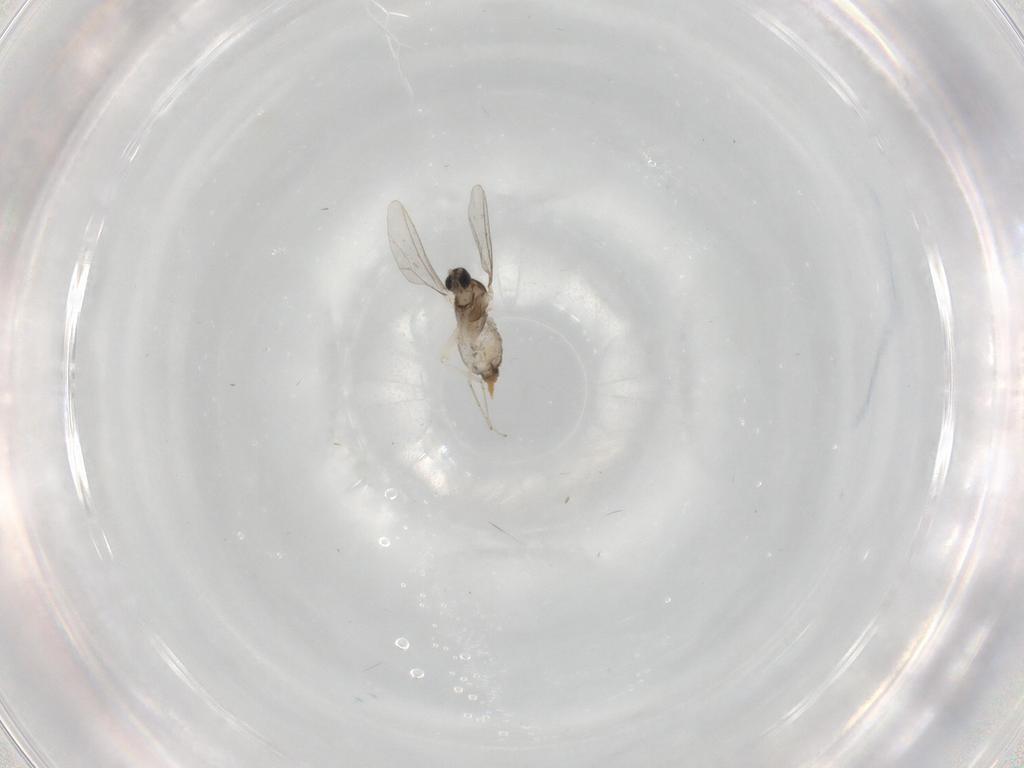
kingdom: Animalia
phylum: Arthropoda
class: Insecta
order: Diptera
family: Cecidomyiidae
